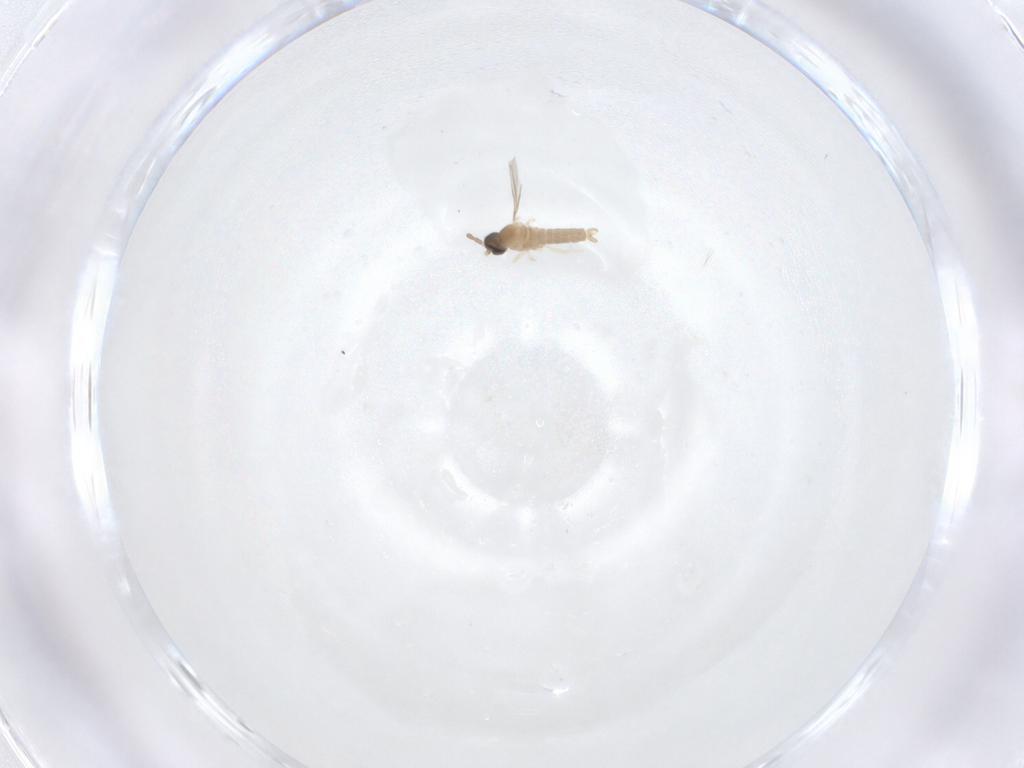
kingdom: Animalia
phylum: Arthropoda
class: Insecta
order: Diptera
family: Cecidomyiidae
